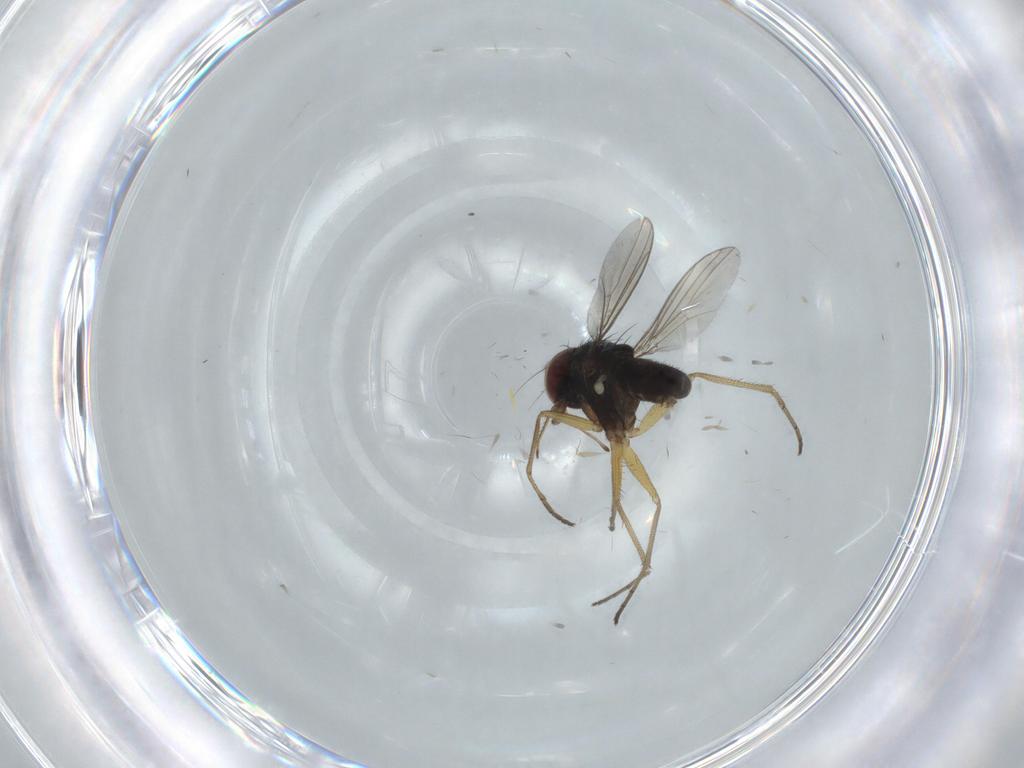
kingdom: Animalia
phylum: Arthropoda
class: Insecta
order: Diptera
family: Dolichopodidae
